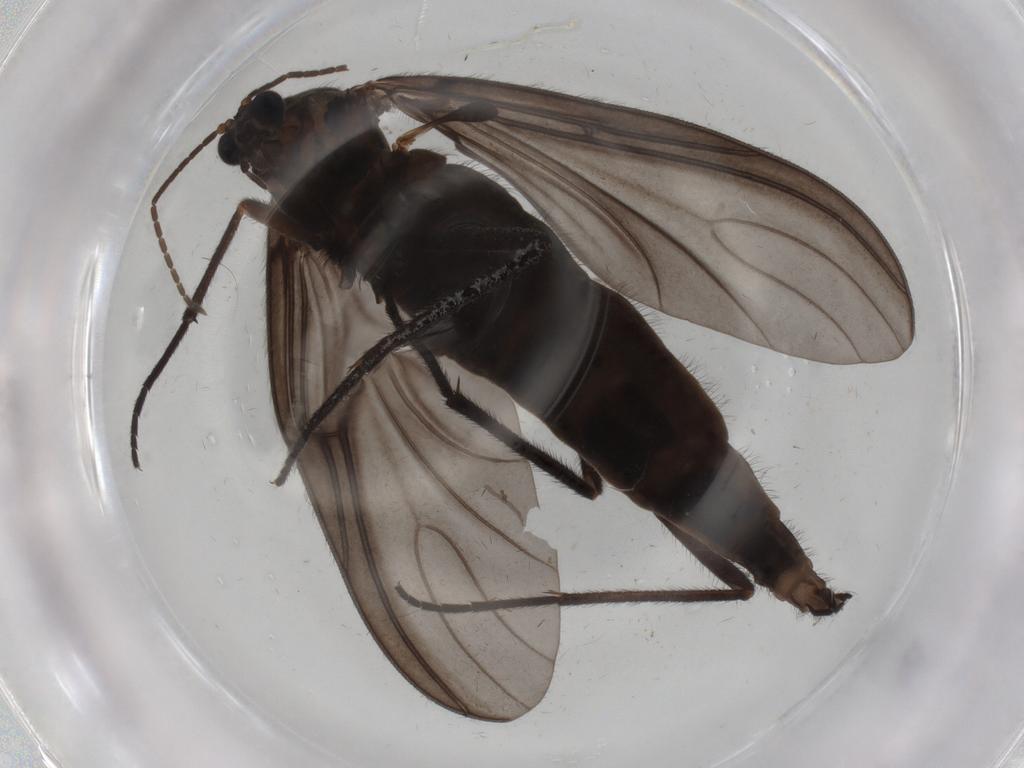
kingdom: Animalia
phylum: Arthropoda
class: Insecta
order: Diptera
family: Sciaridae
